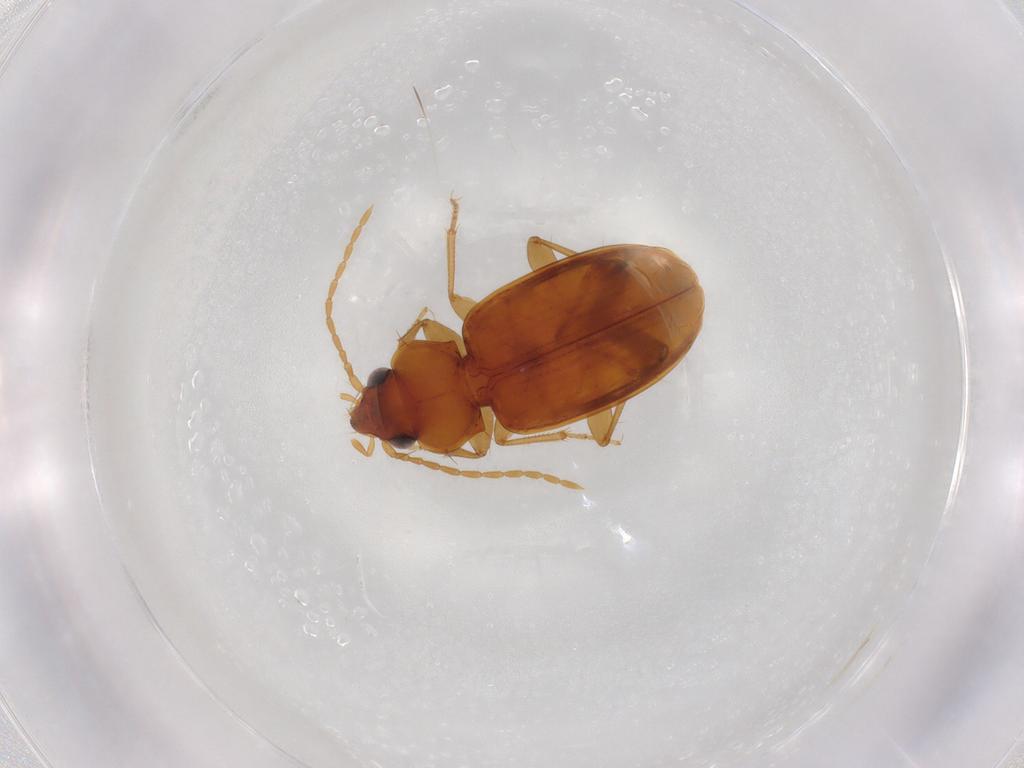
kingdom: Animalia
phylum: Arthropoda
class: Insecta
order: Coleoptera
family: Carabidae
